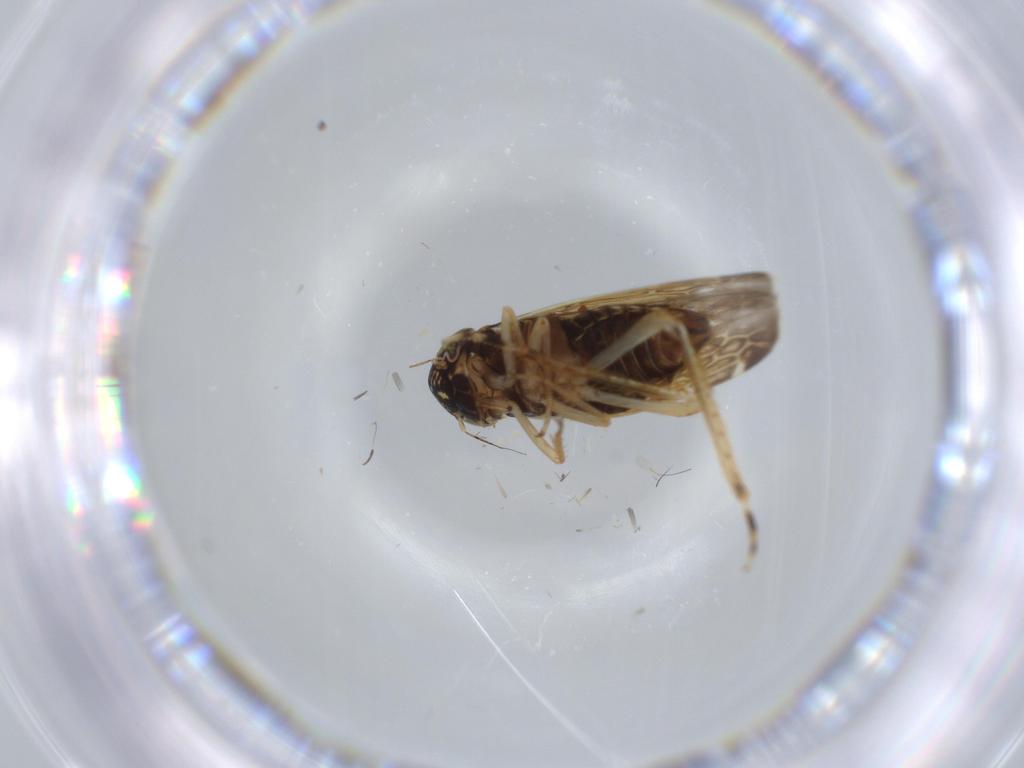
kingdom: Animalia
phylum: Arthropoda
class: Insecta
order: Hemiptera
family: Cicadellidae
